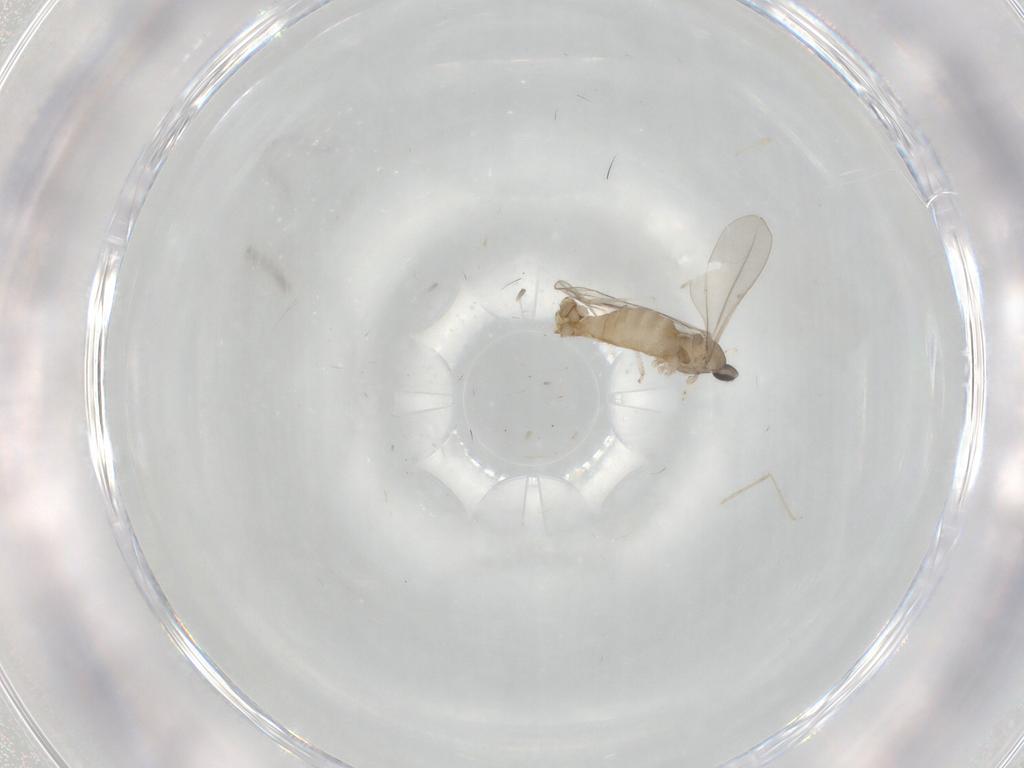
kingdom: Animalia
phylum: Arthropoda
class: Insecta
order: Diptera
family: Cecidomyiidae
